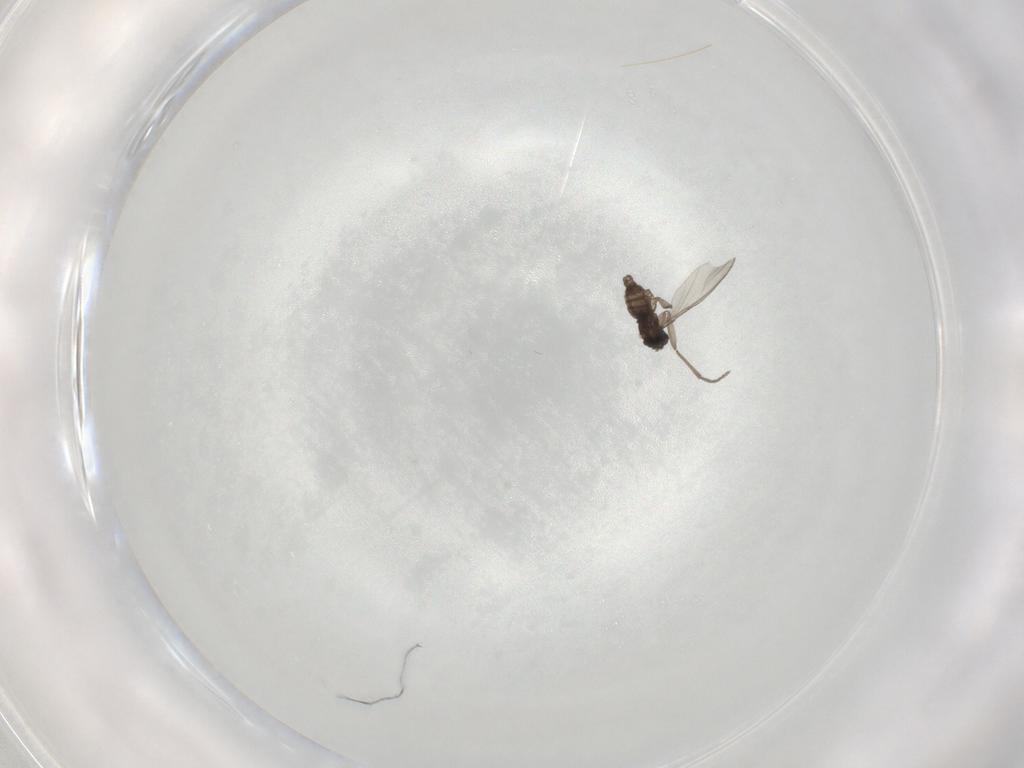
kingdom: Animalia
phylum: Arthropoda
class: Insecta
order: Diptera
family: Sciaridae
